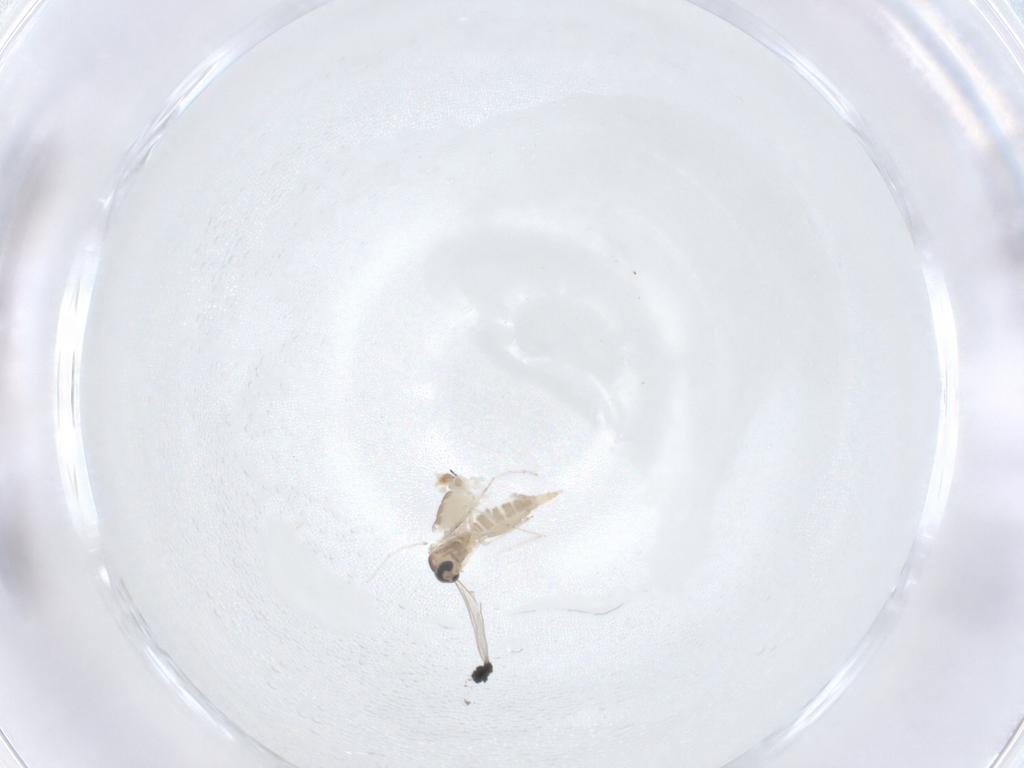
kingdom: Animalia
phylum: Arthropoda
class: Insecta
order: Diptera
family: Cecidomyiidae
